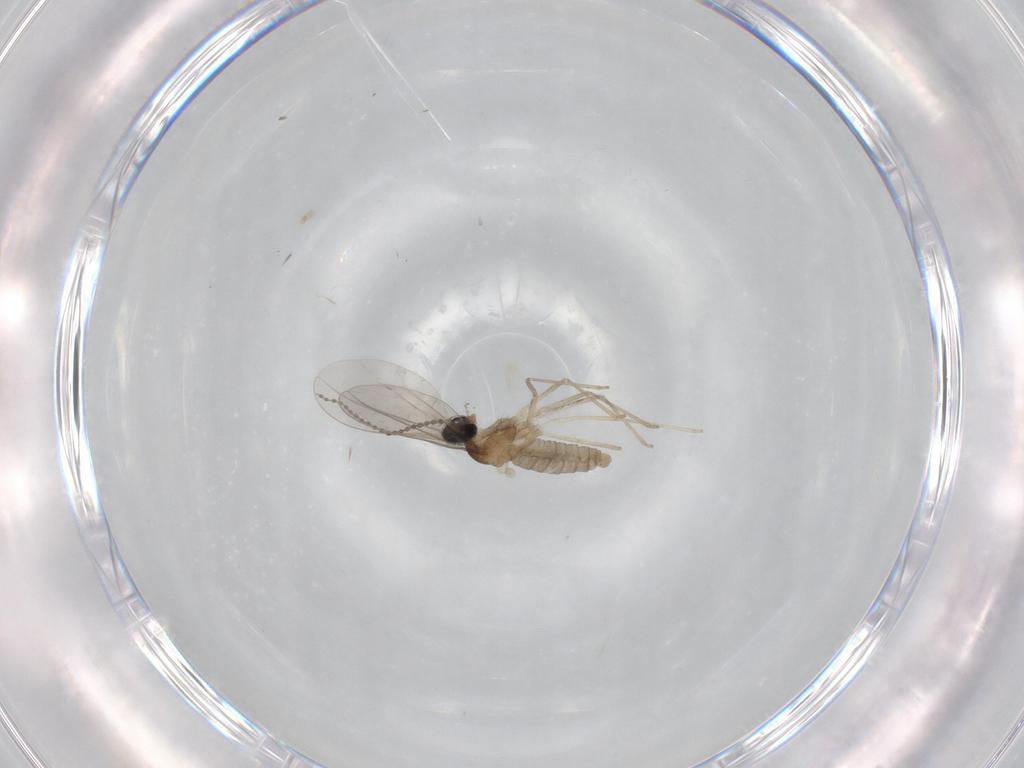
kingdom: Animalia
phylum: Arthropoda
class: Insecta
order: Diptera
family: Cecidomyiidae
